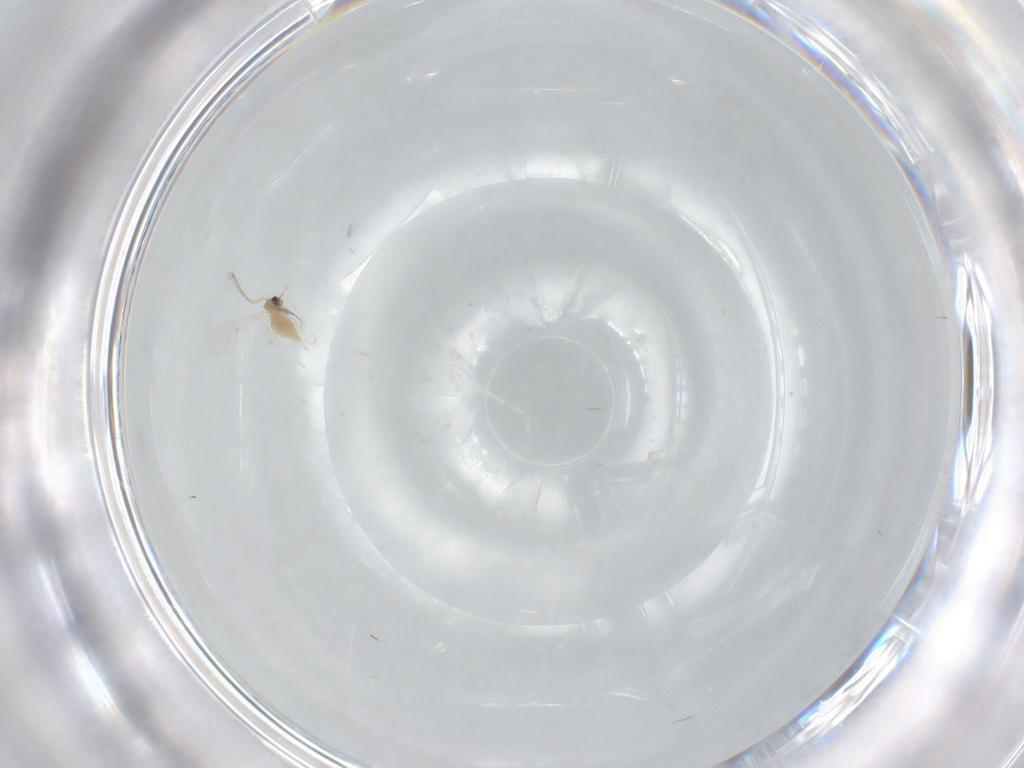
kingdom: Animalia
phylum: Arthropoda
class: Insecta
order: Diptera
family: Cecidomyiidae
